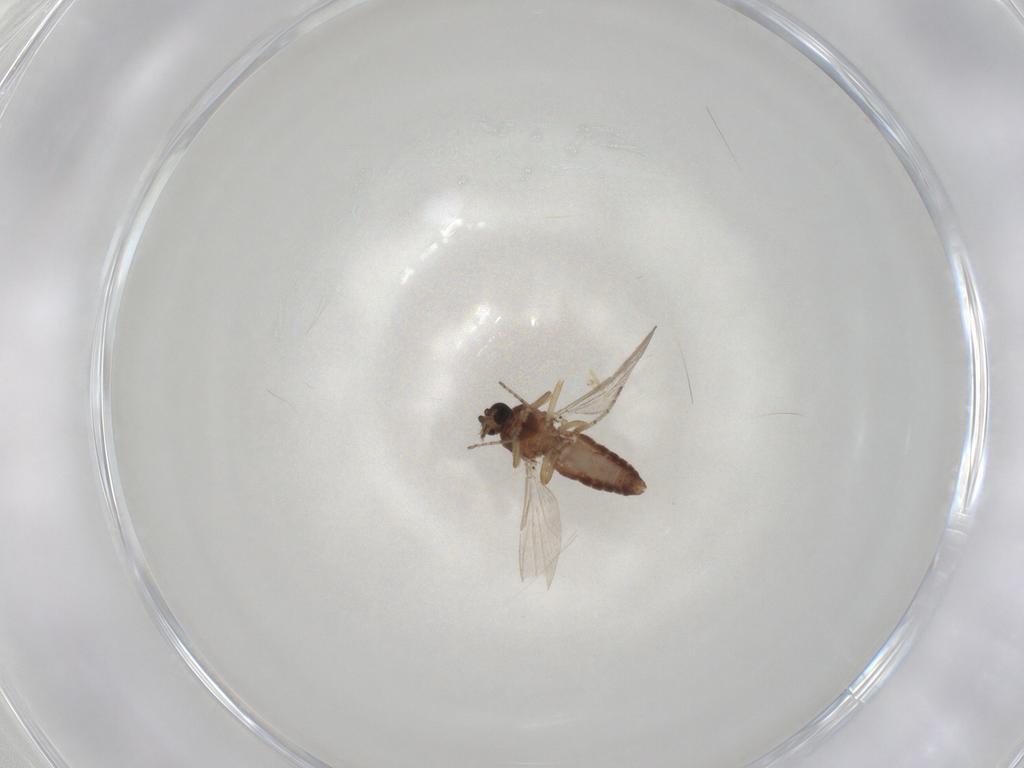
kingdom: Animalia
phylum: Arthropoda
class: Insecta
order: Diptera
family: Ceratopogonidae
